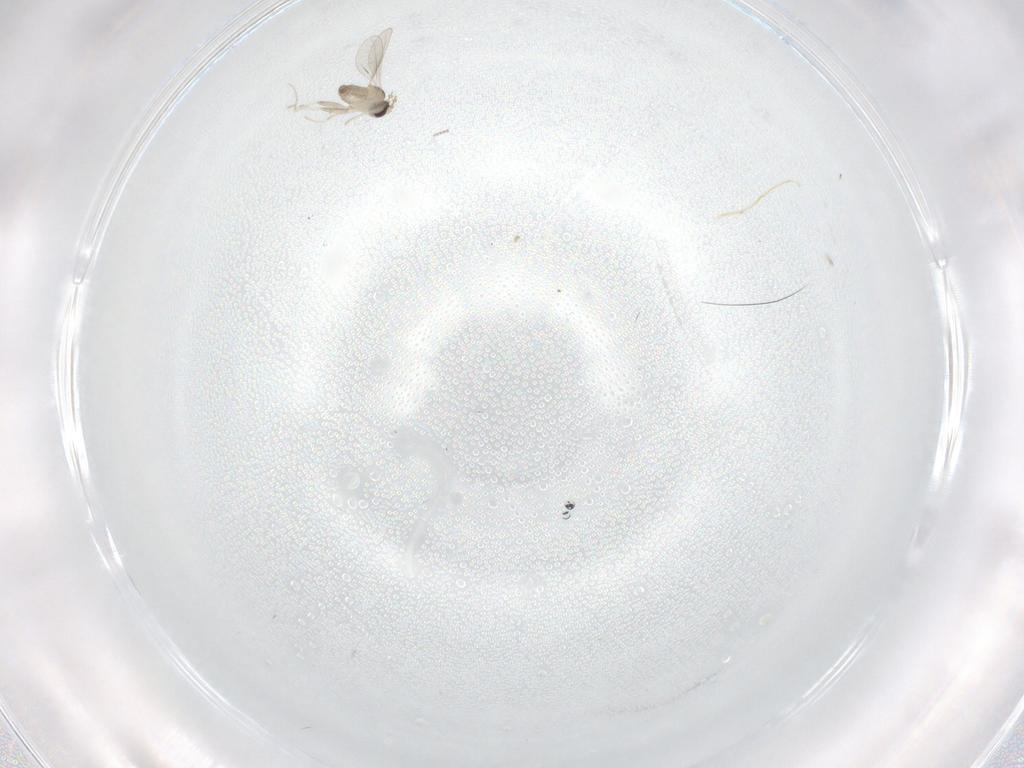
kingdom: Animalia
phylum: Arthropoda
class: Insecta
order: Diptera
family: Cecidomyiidae
